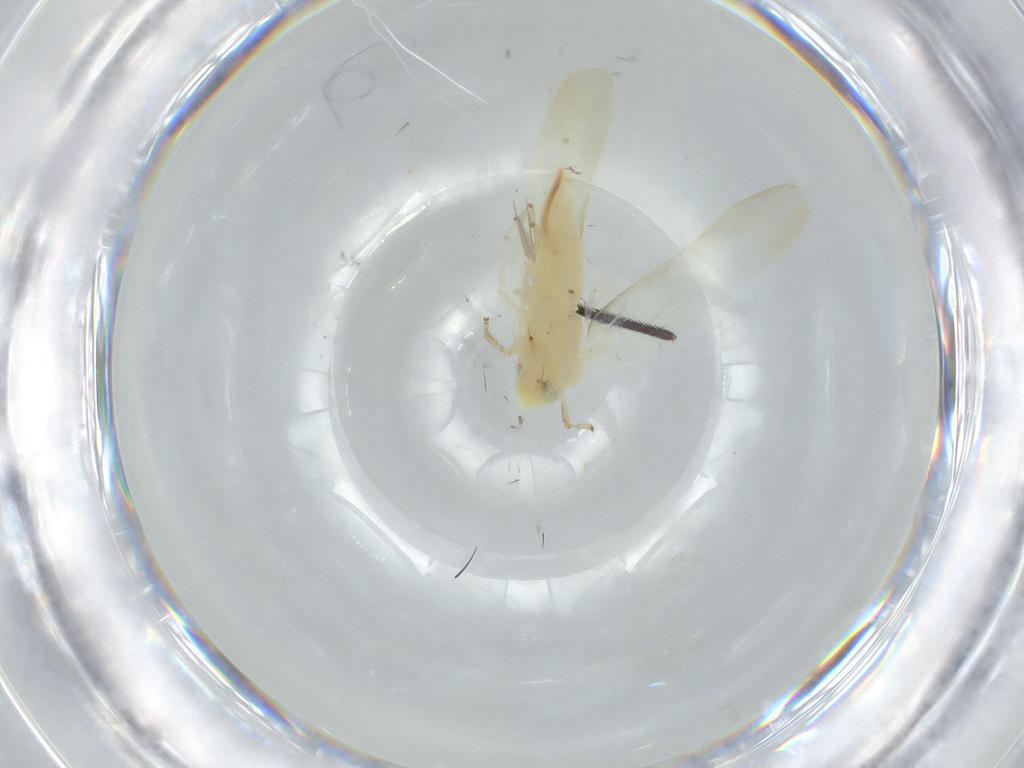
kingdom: Animalia
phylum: Arthropoda
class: Insecta
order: Hemiptera
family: Cicadellidae
